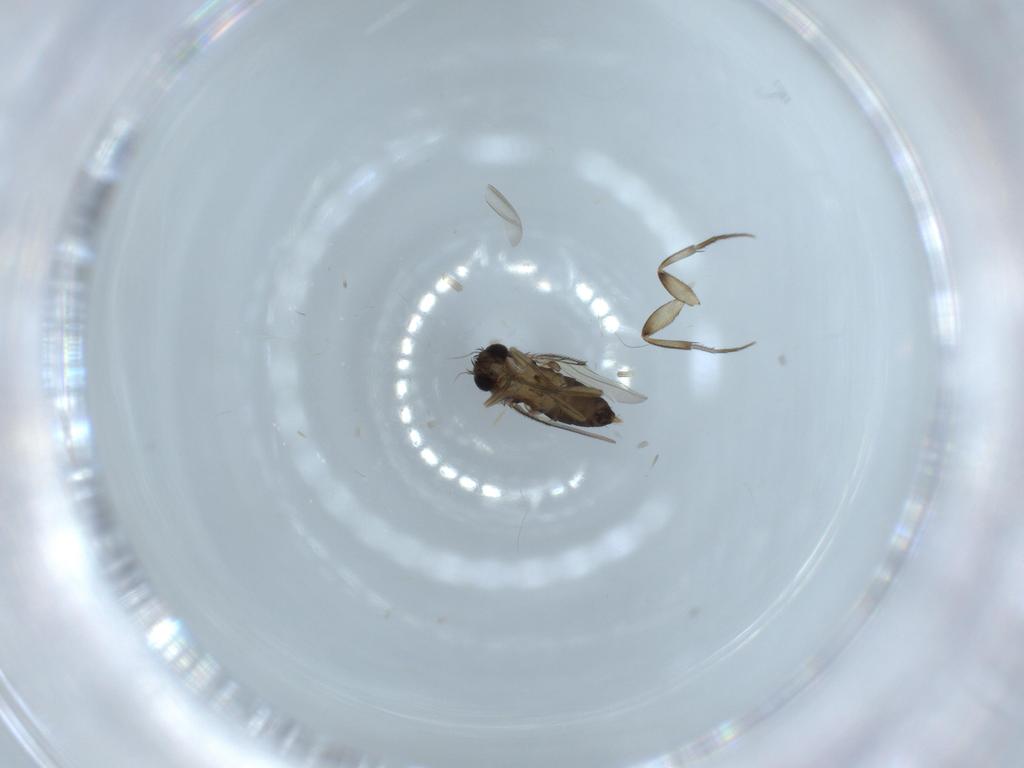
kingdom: Animalia
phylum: Arthropoda
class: Insecta
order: Diptera
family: Phoridae
